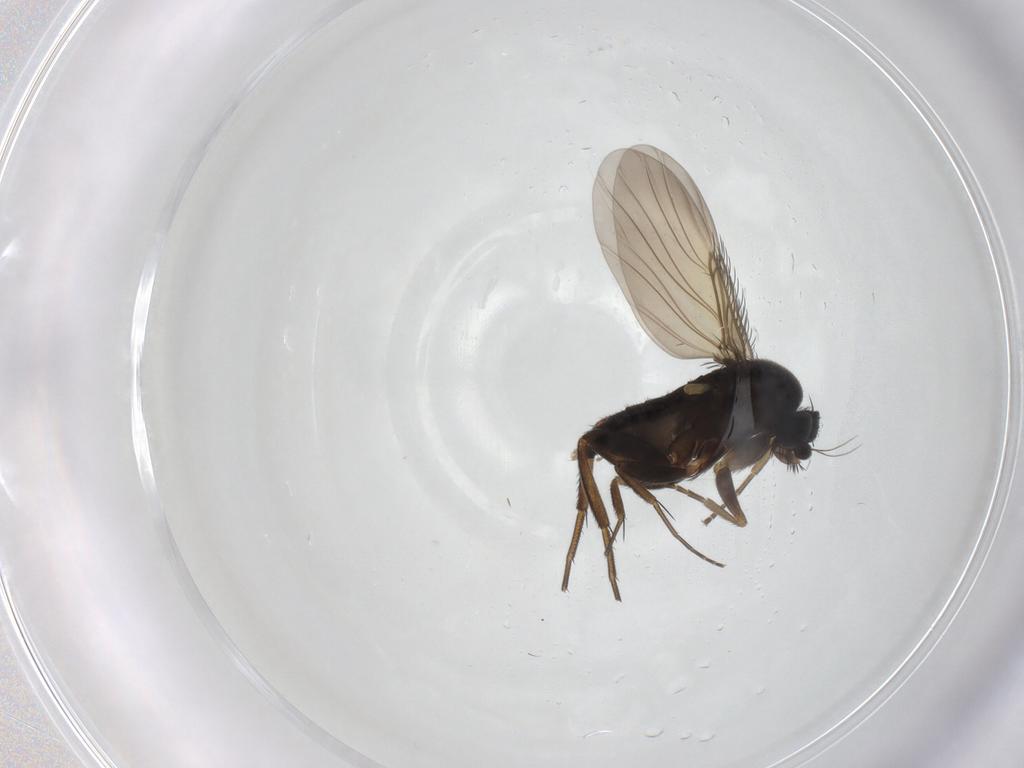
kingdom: Animalia
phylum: Arthropoda
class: Insecta
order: Diptera
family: Phoridae
